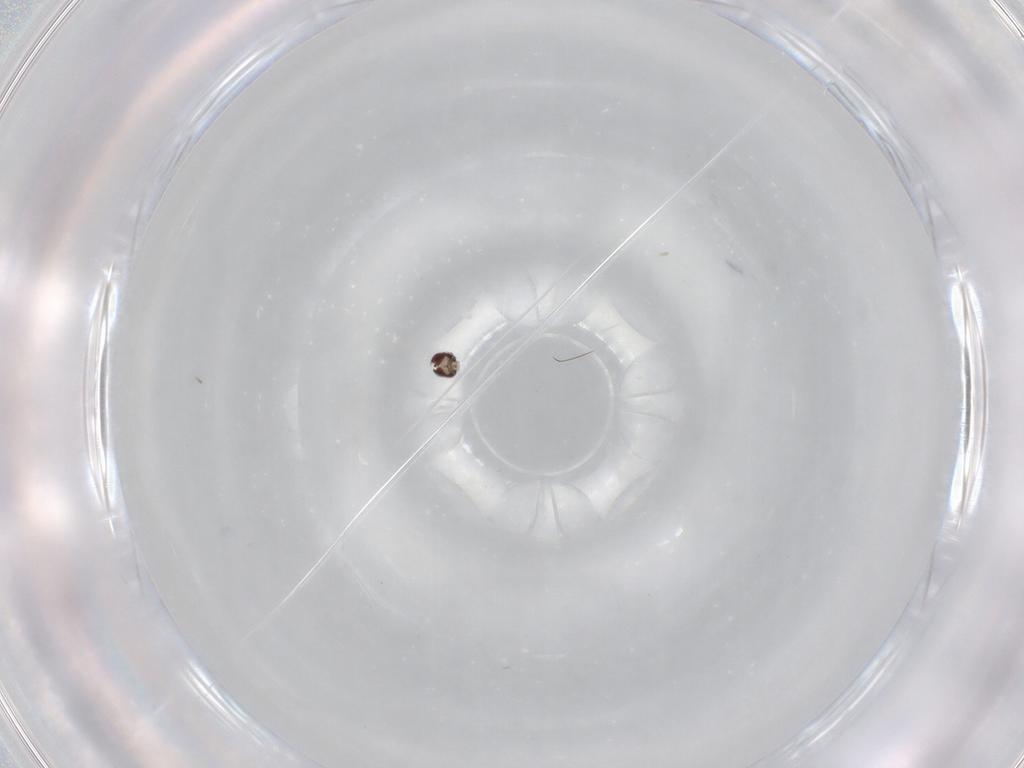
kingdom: Animalia
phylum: Arthropoda
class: Insecta
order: Diptera
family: Cecidomyiidae
